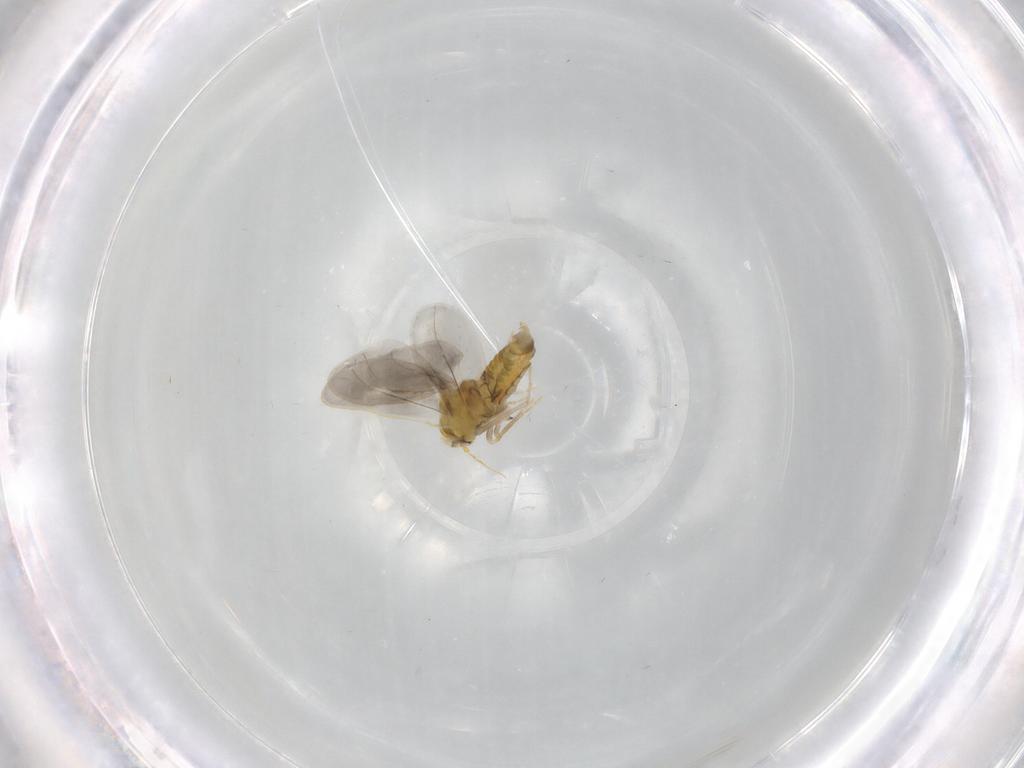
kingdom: Animalia
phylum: Arthropoda
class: Insecta
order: Hemiptera
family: Aleyrodidae
